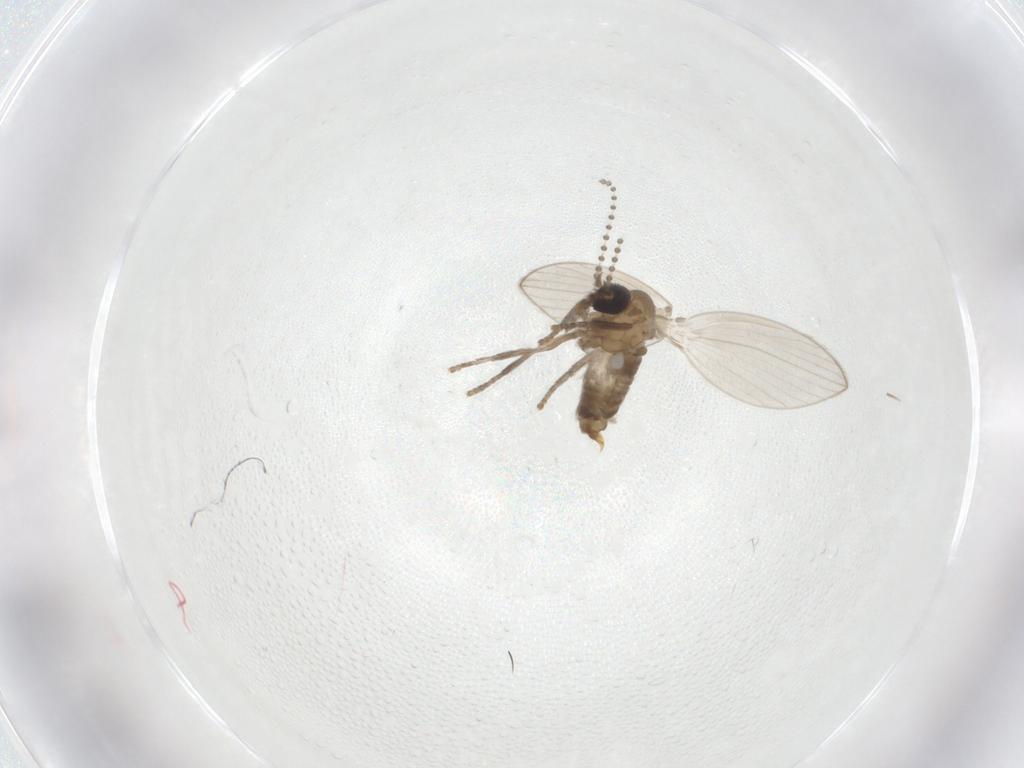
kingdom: Animalia
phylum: Arthropoda
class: Insecta
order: Diptera
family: Psychodidae
